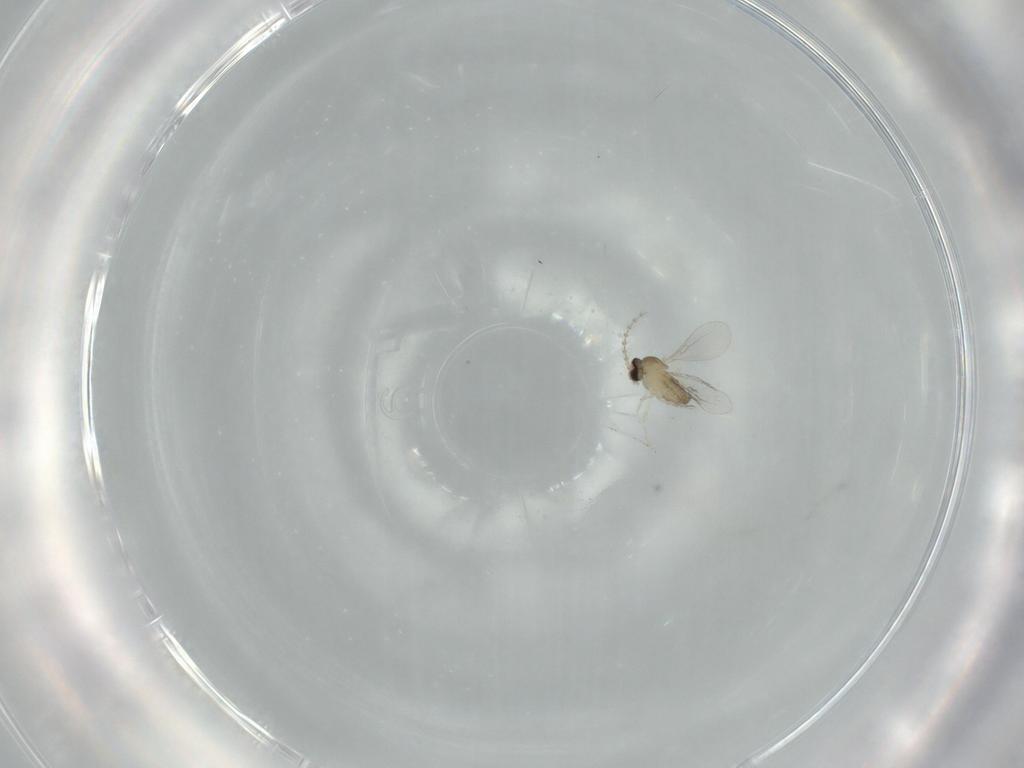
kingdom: Animalia
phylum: Arthropoda
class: Insecta
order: Diptera
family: Cecidomyiidae
